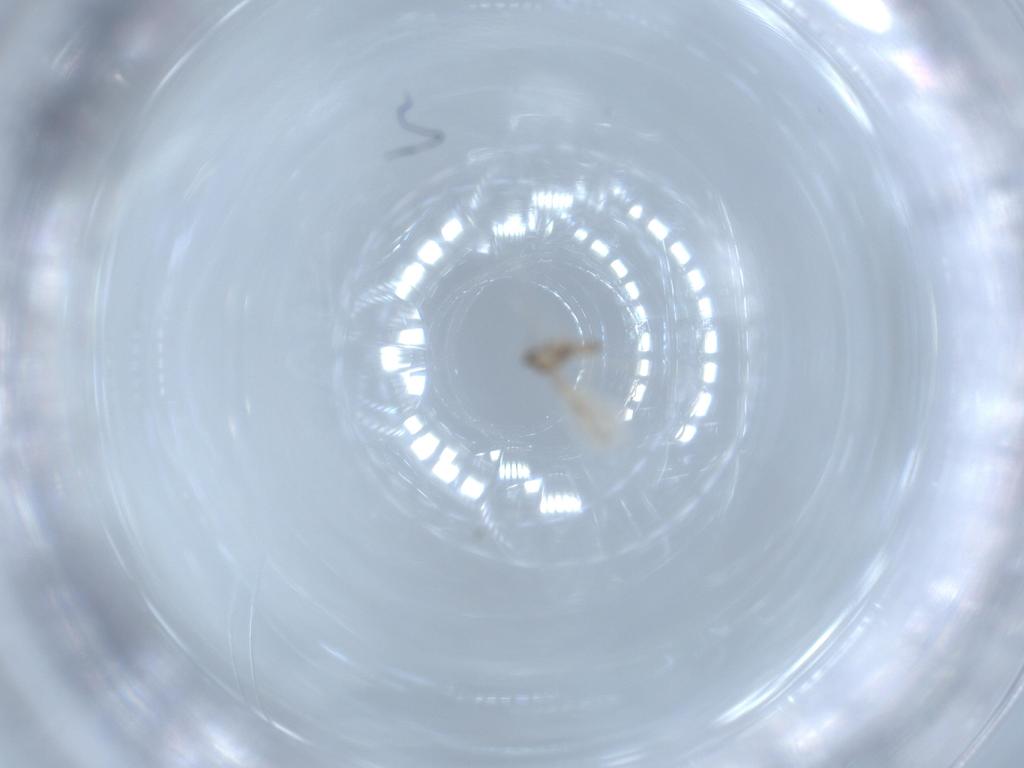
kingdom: Animalia
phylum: Arthropoda
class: Insecta
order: Diptera
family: Cecidomyiidae
